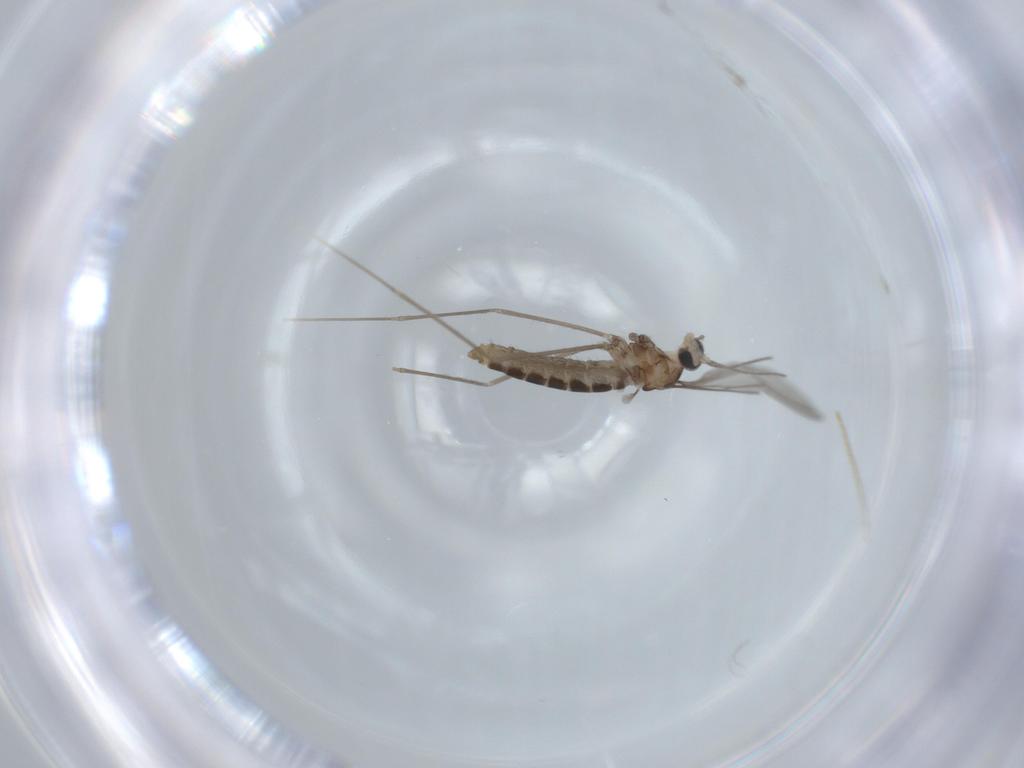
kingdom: Animalia
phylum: Arthropoda
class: Insecta
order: Diptera
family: Cecidomyiidae
